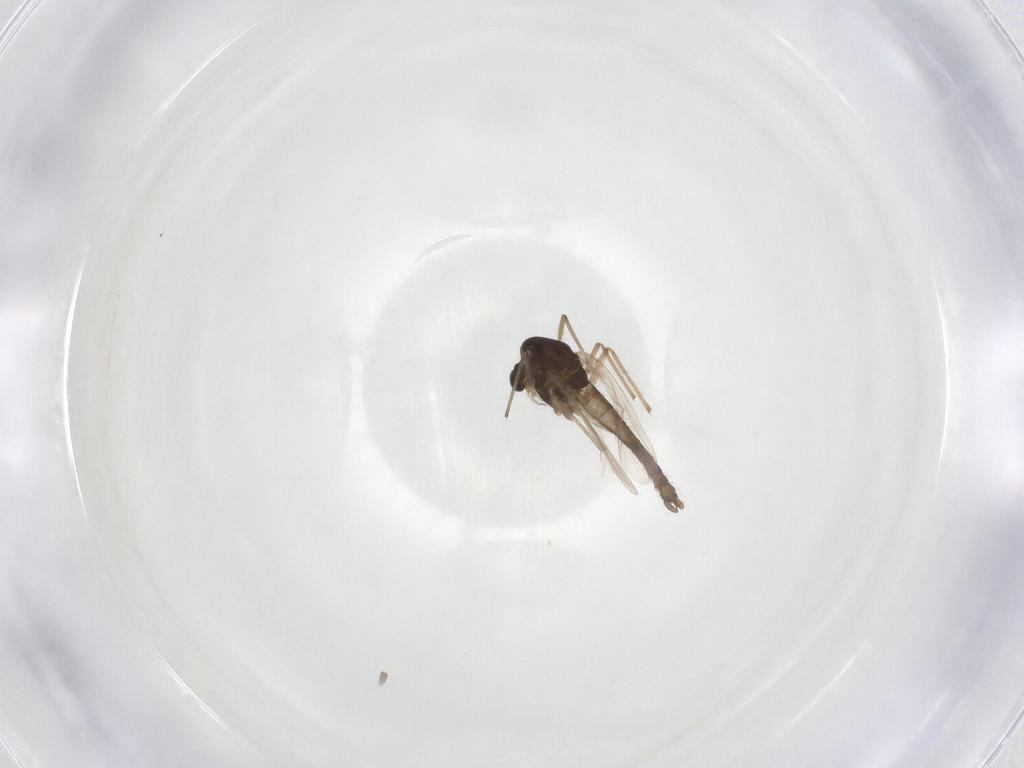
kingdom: Animalia
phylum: Arthropoda
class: Insecta
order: Diptera
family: Chironomidae
